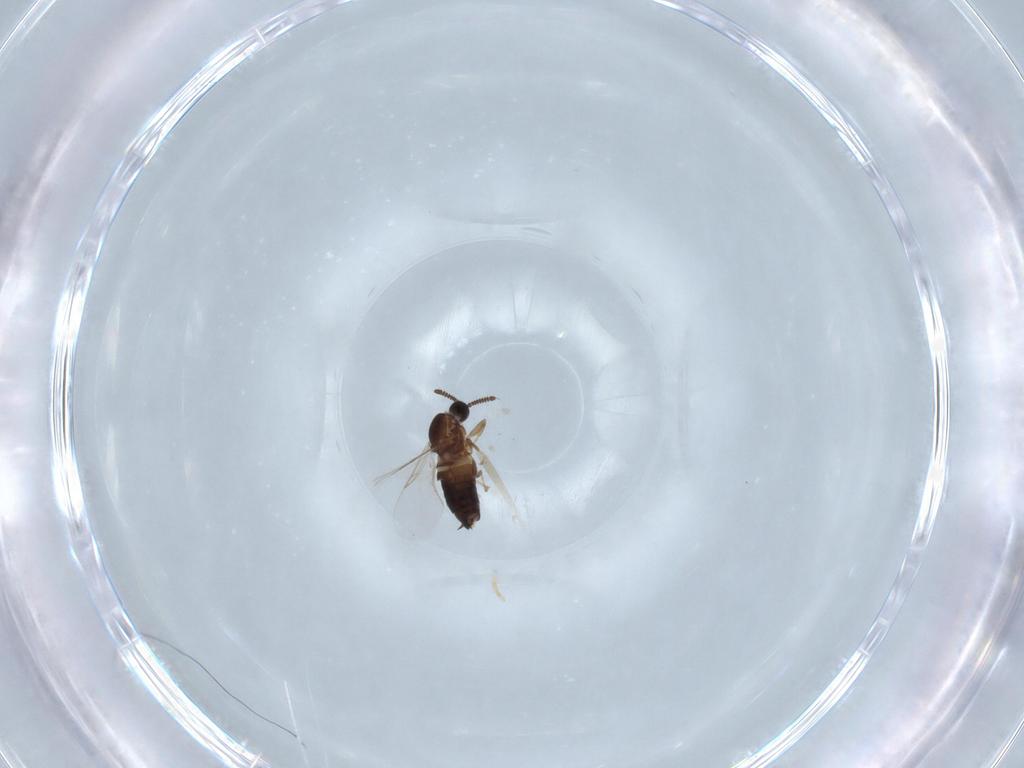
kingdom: Animalia
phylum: Arthropoda
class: Insecta
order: Diptera
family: Scatopsidae
